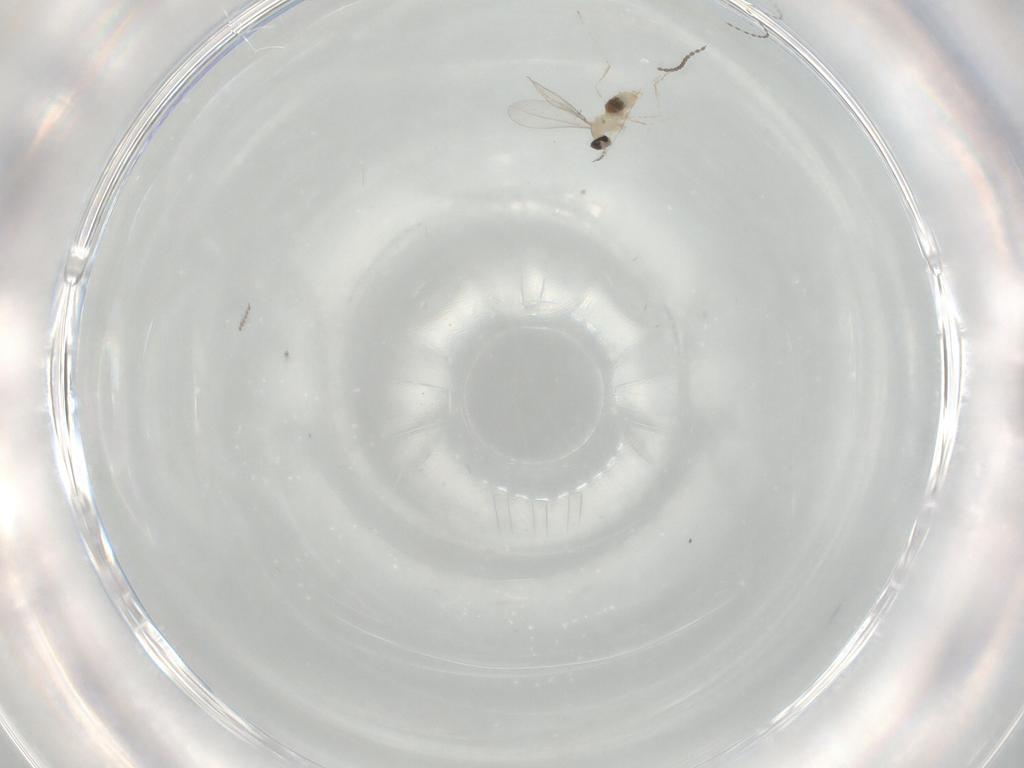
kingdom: Animalia
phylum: Arthropoda
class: Insecta
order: Diptera
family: Cecidomyiidae
